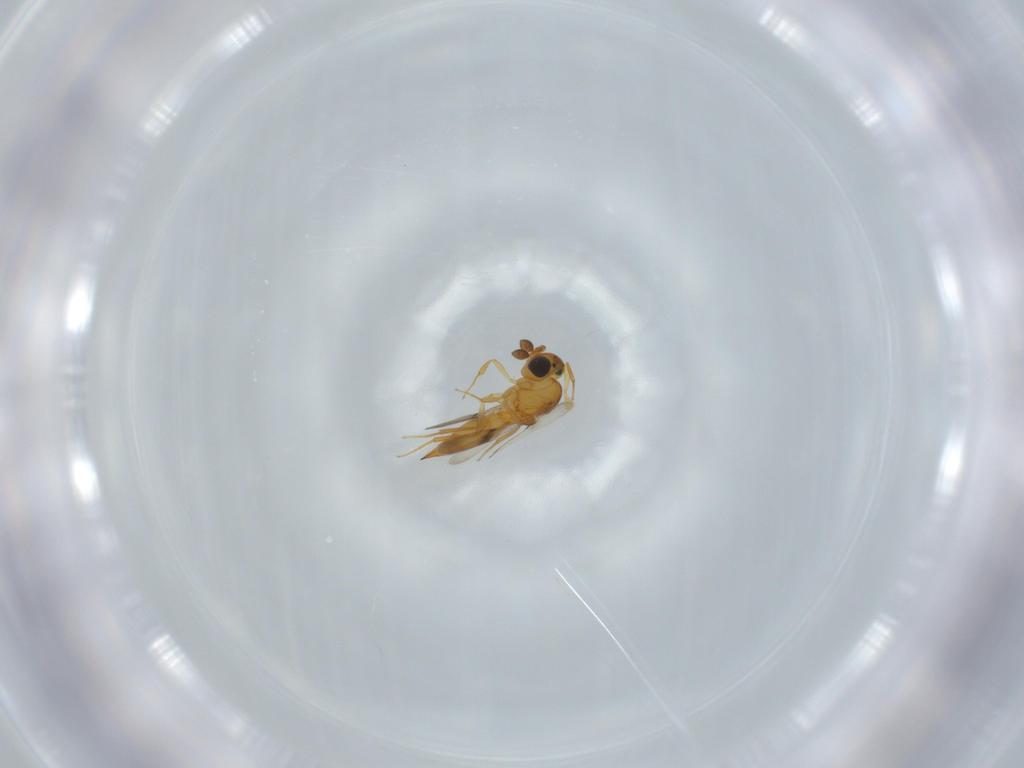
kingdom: Animalia
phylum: Arthropoda
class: Insecta
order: Hymenoptera
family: Scelionidae
